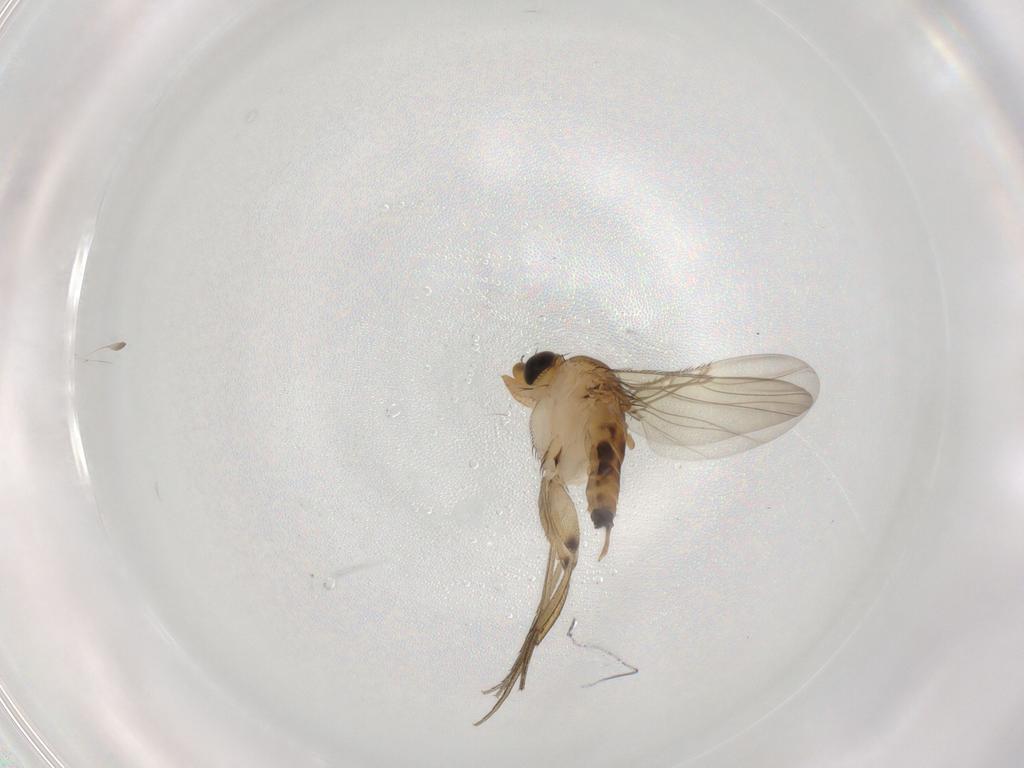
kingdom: Animalia
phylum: Arthropoda
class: Insecta
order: Diptera
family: Phoridae
